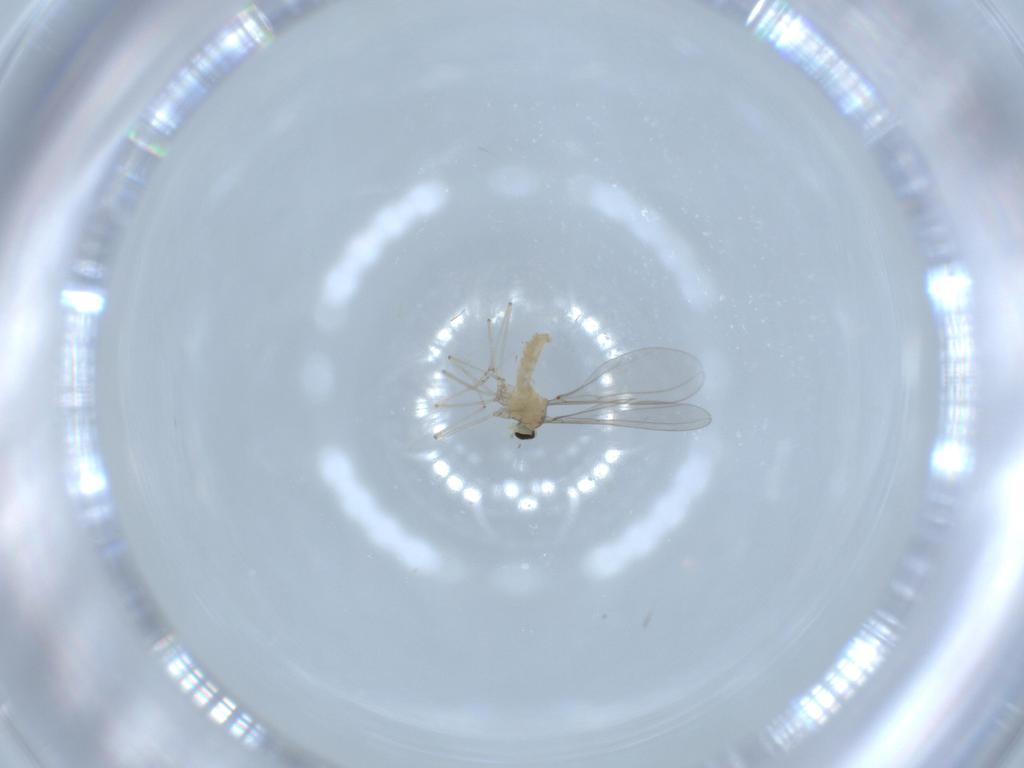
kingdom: Animalia
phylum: Arthropoda
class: Insecta
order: Diptera
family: Cecidomyiidae
